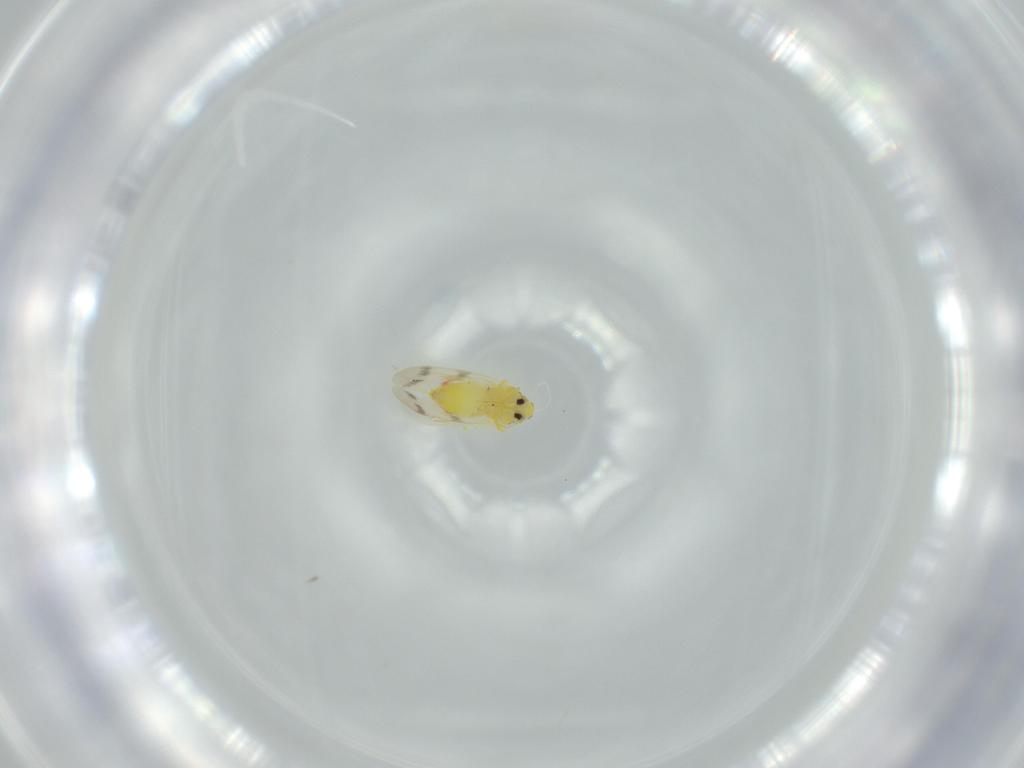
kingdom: Animalia
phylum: Arthropoda
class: Insecta
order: Hemiptera
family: Aleyrodidae
